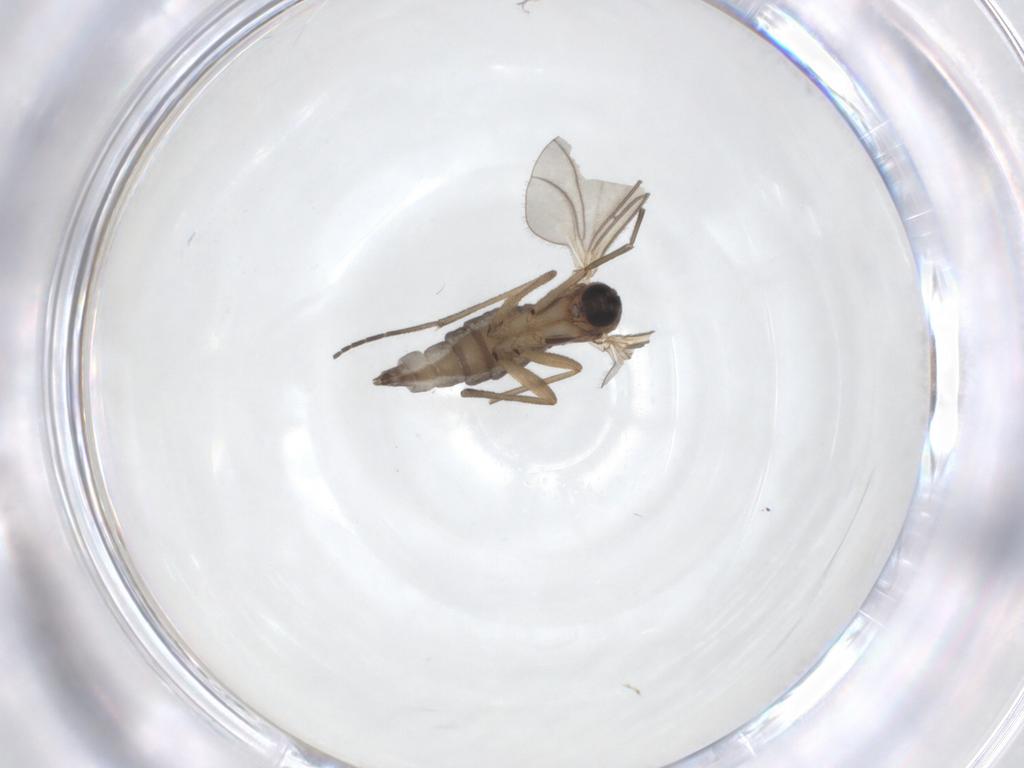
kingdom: Animalia
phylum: Arthropoda
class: Insecta
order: Diptera
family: Sciaridae
